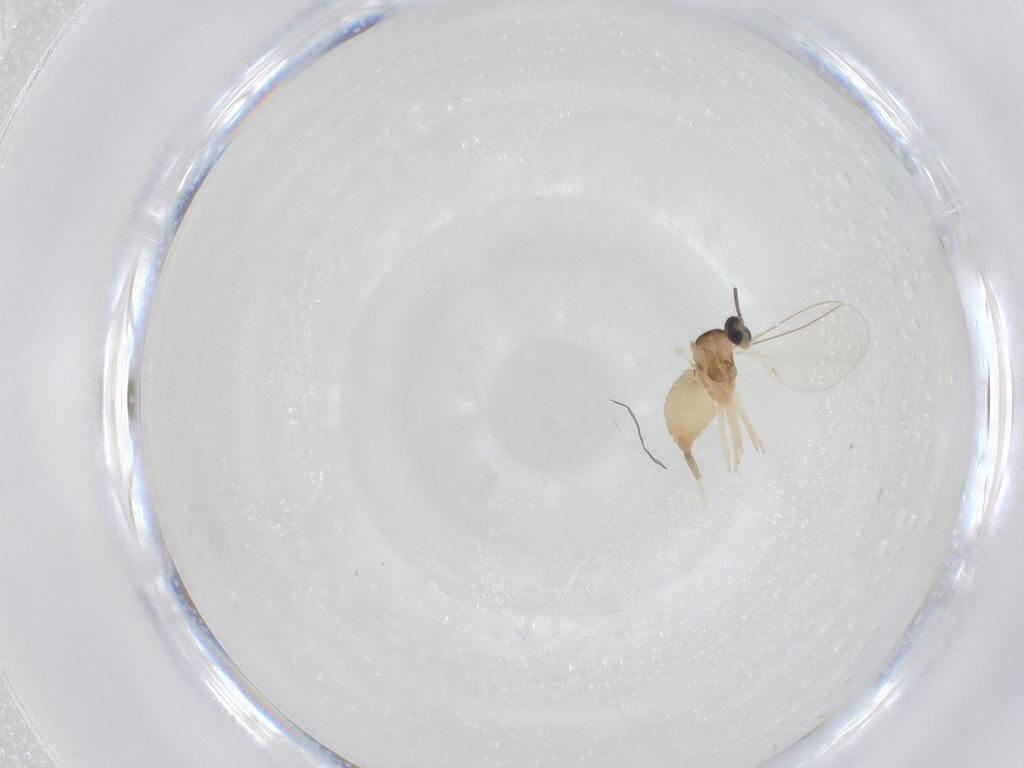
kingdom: Animalia
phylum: Arthropoda
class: Insecta
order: Diptera
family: Cecidomyiidae
